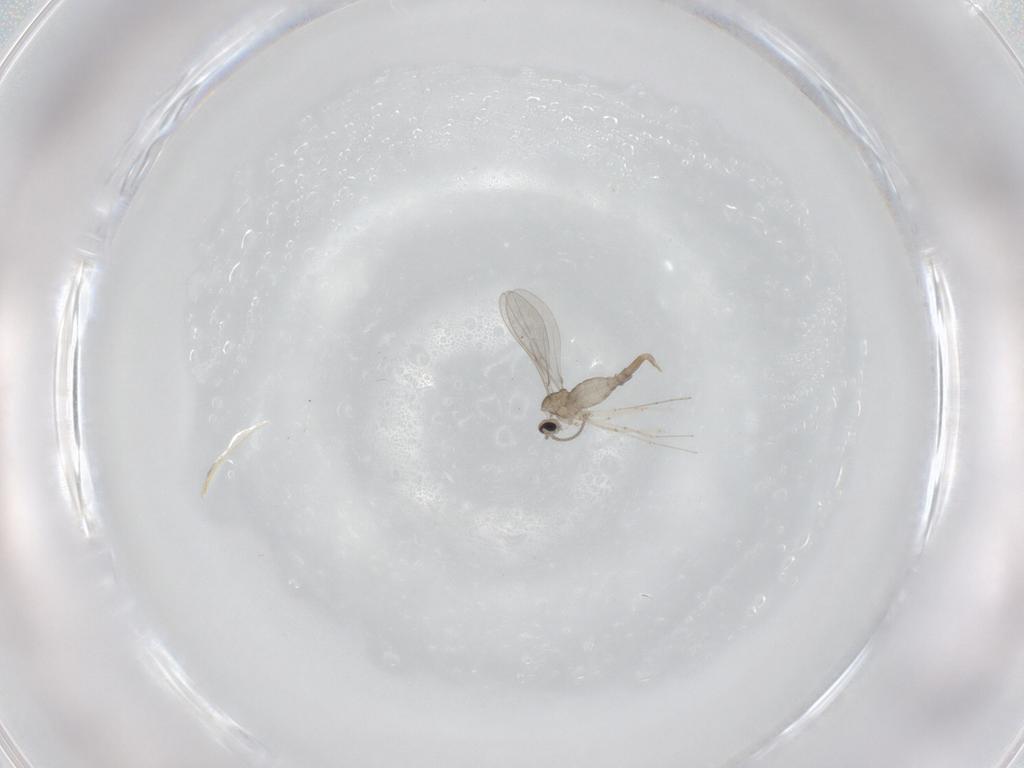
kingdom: Animalia
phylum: Arthropoda
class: Insecta
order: Diptera
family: Cecidomyiidae
